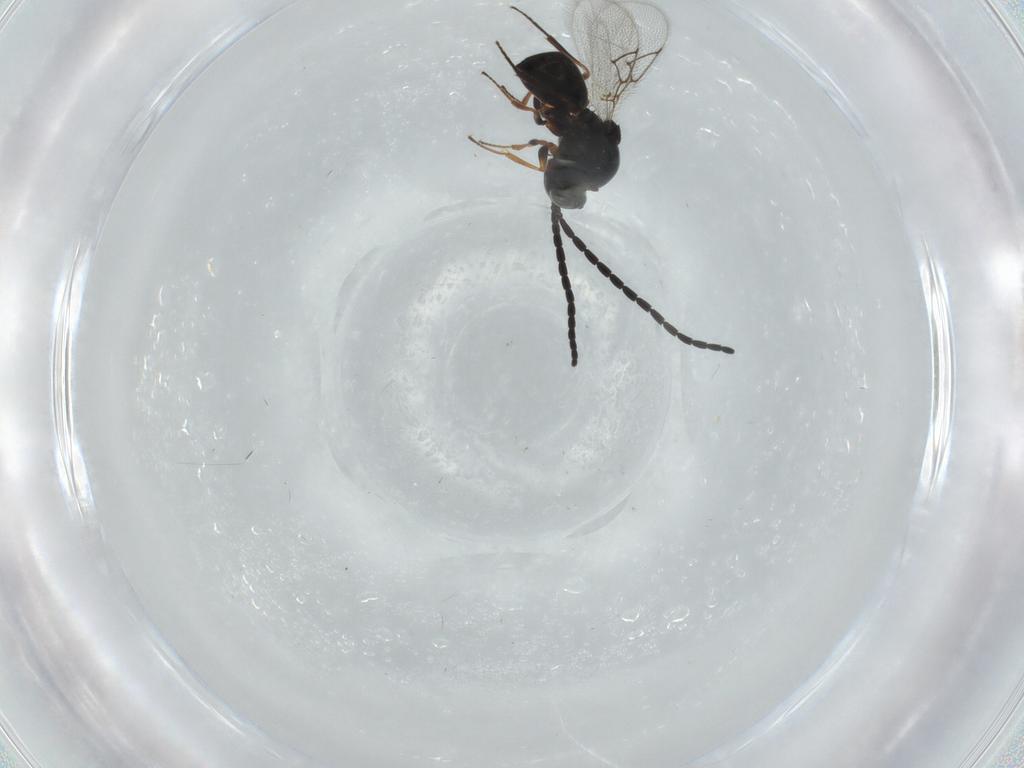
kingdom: Animalia
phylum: Arthropoda
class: Insecta
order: Hymenoptera
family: Figitidae
